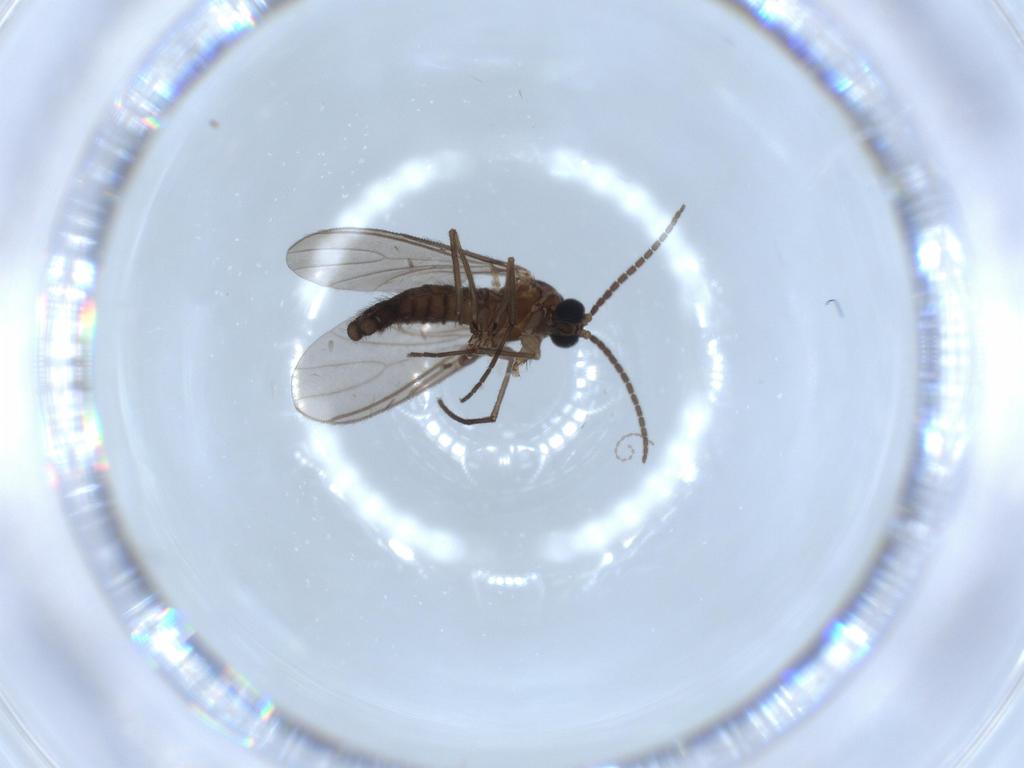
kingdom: Animalia
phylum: Arthropoda
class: Insecta
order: Diptera
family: Sciaridae
